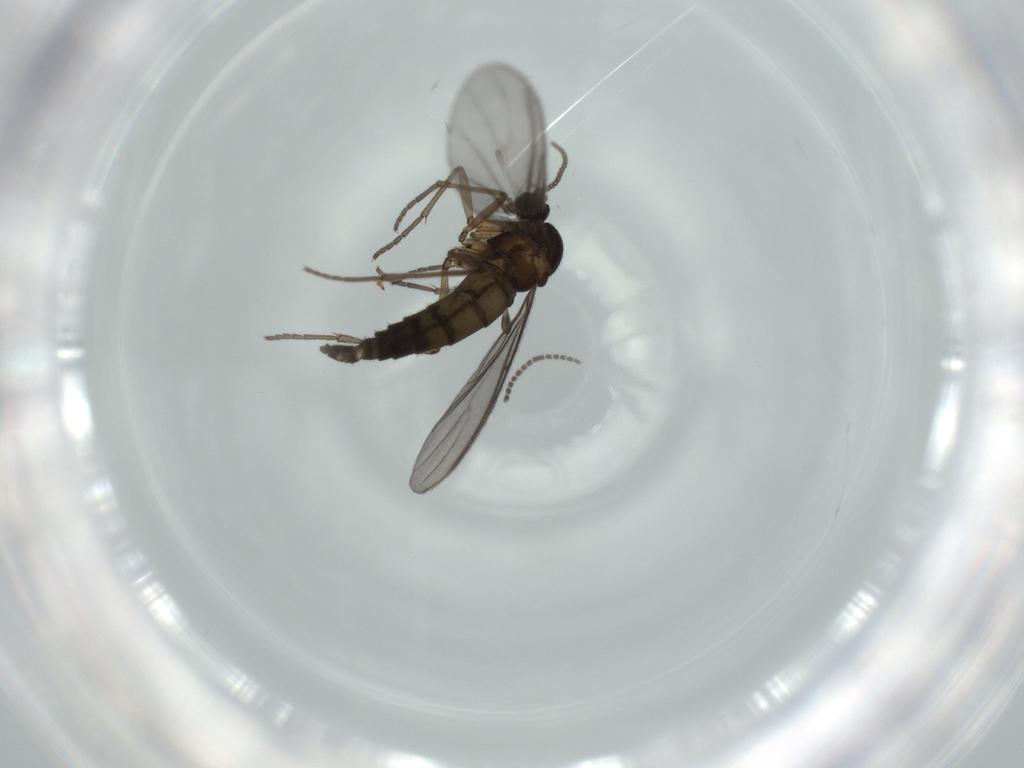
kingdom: Animalia
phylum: Arthropoda
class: Insecta
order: Diptera
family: Sciaridae
